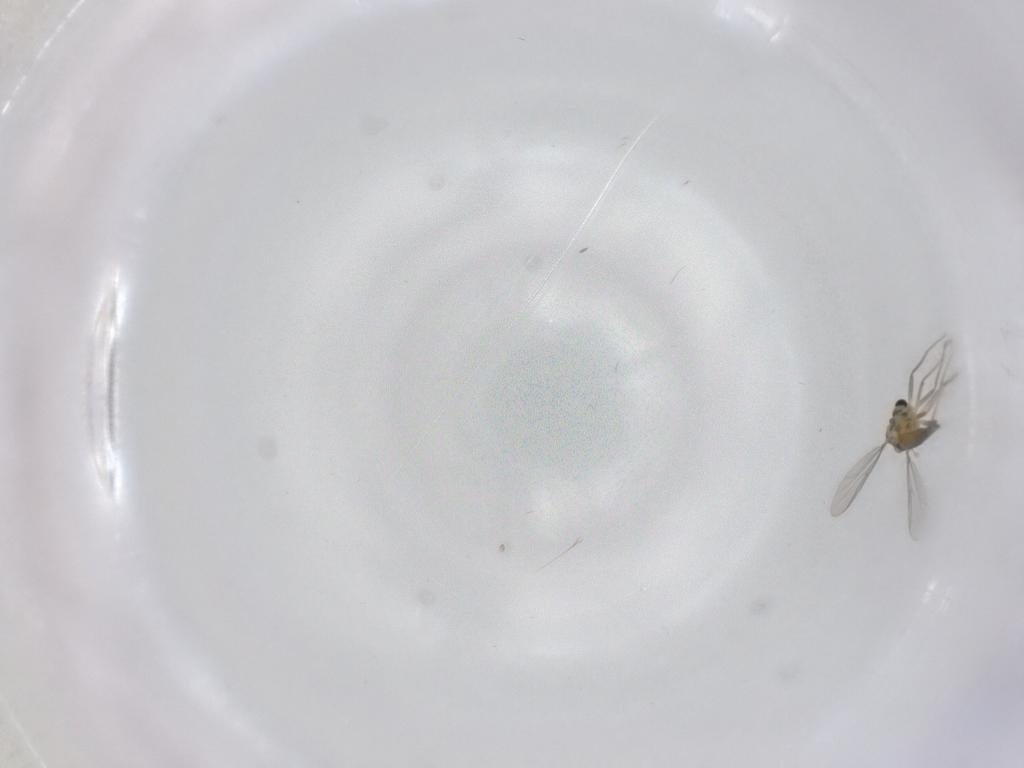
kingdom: Animalia
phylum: Arthropoda
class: Insecta
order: Diptera
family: Chironomidae
